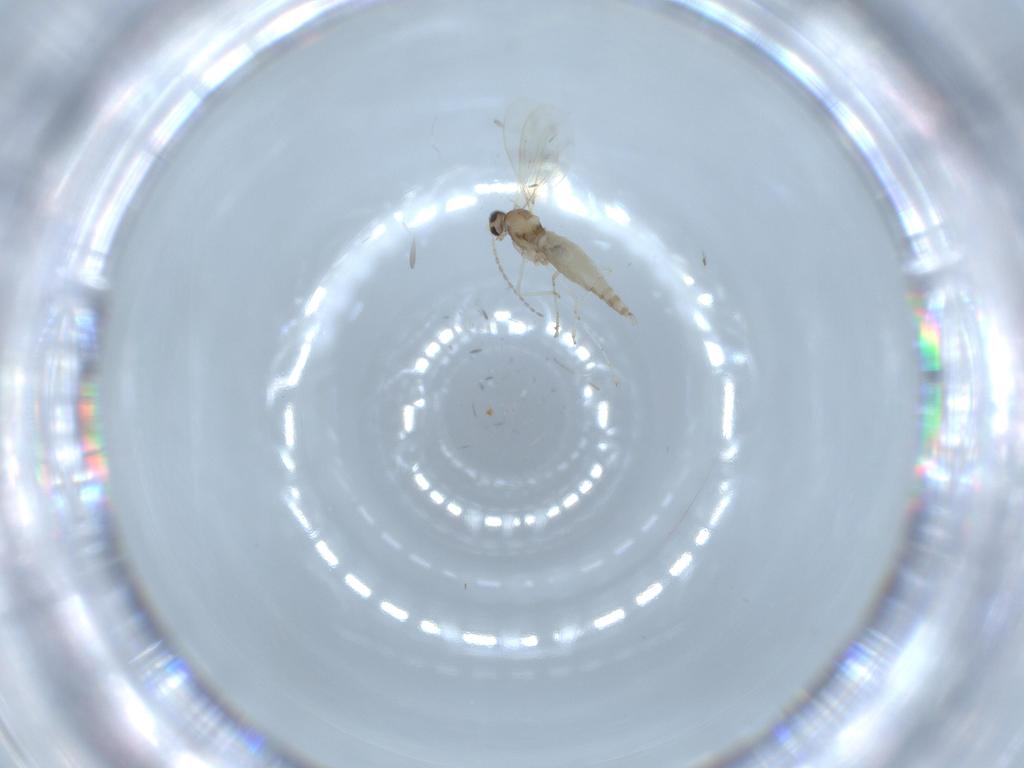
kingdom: Animalia
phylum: Arthropoda
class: Insecta
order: Diptera
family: Cecidomyiidae
